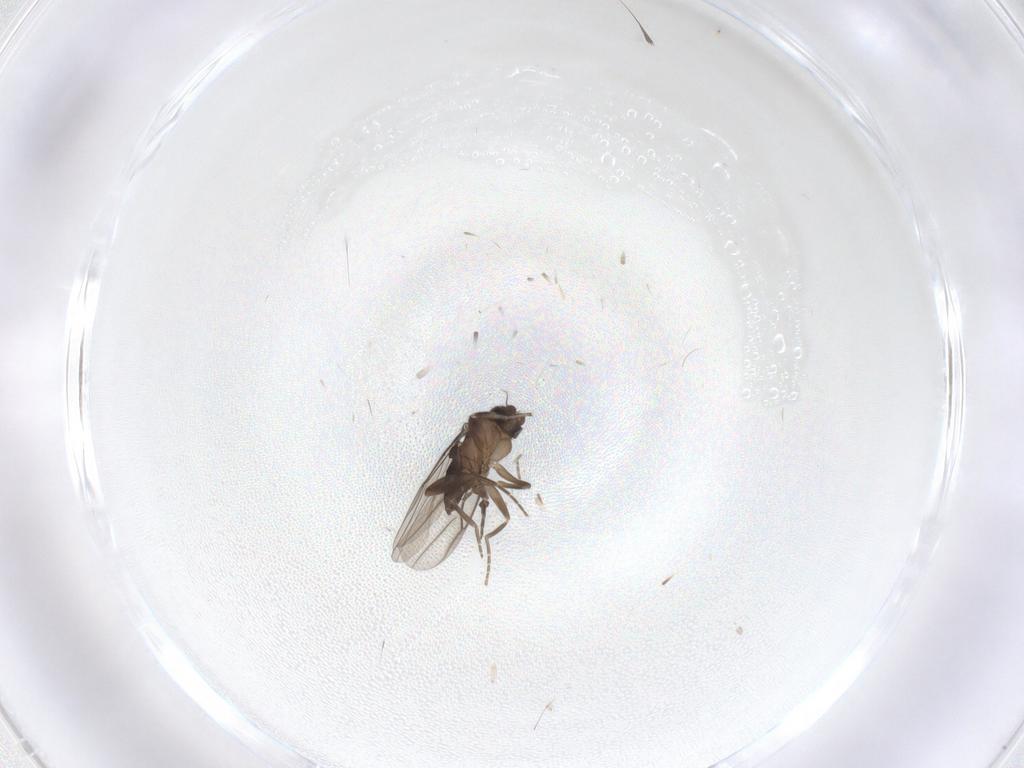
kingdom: Animalia
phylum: Arthropoda
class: Insecta
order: Diptera
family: Phoridae
